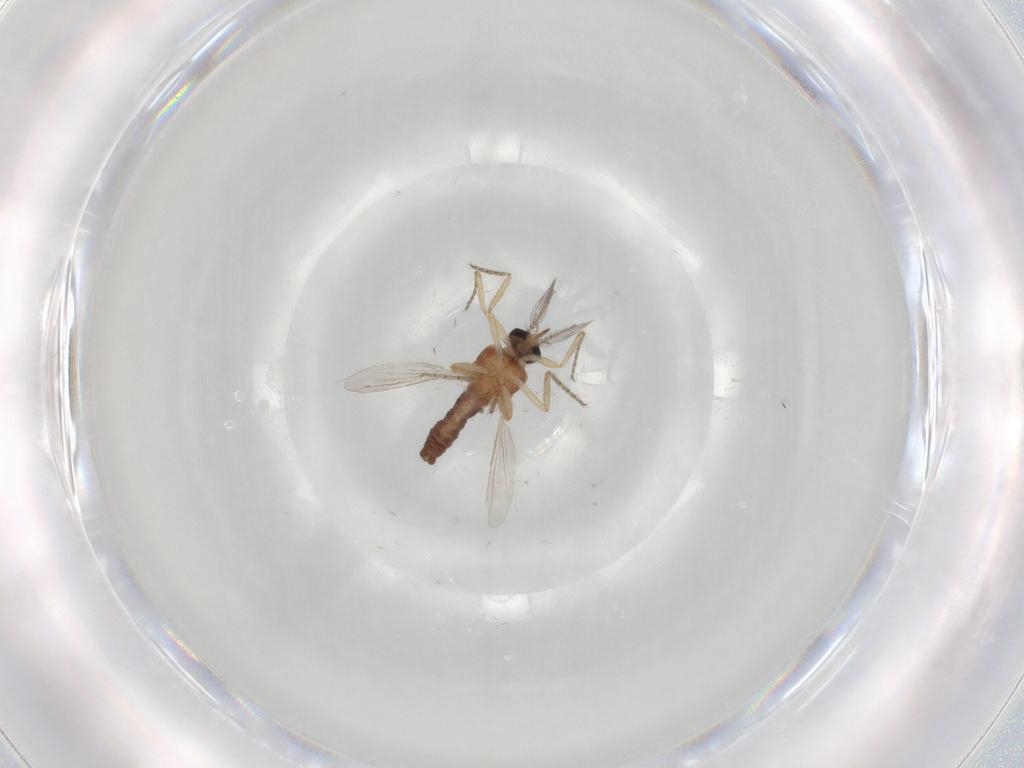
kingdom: Animalia
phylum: Arthropoda
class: Insecta
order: Diptera
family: Ceratopogonidae
